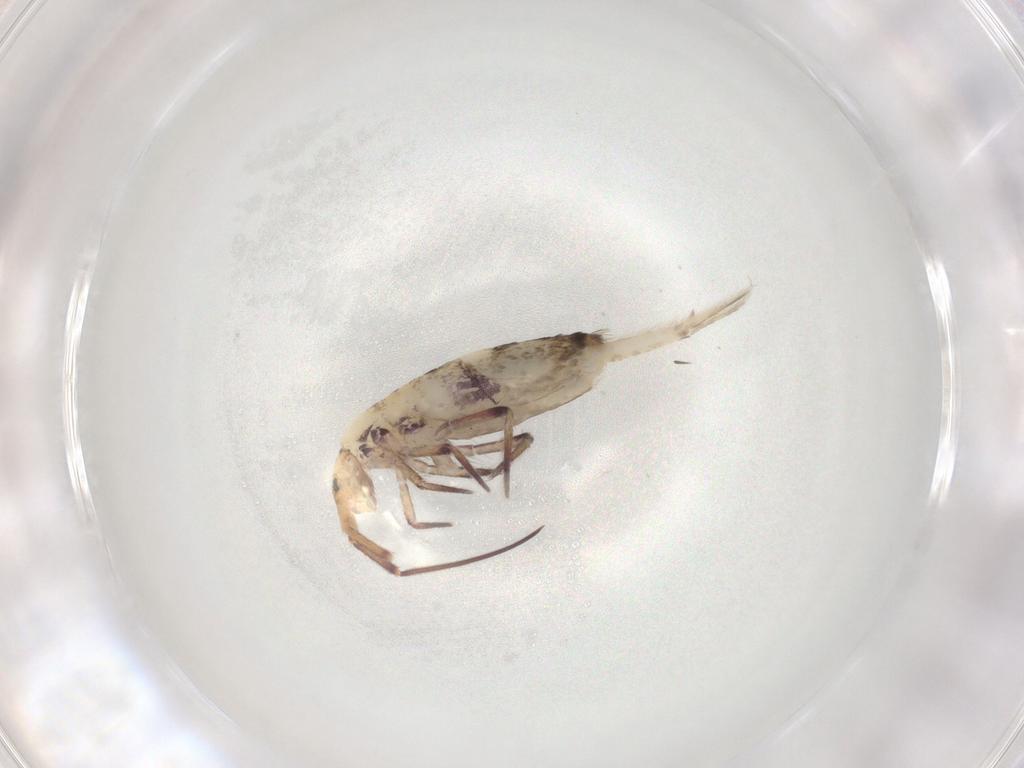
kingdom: Animalia
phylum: Arthropoda
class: Collembola
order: Entomobryomorpha
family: Entomobryidae
